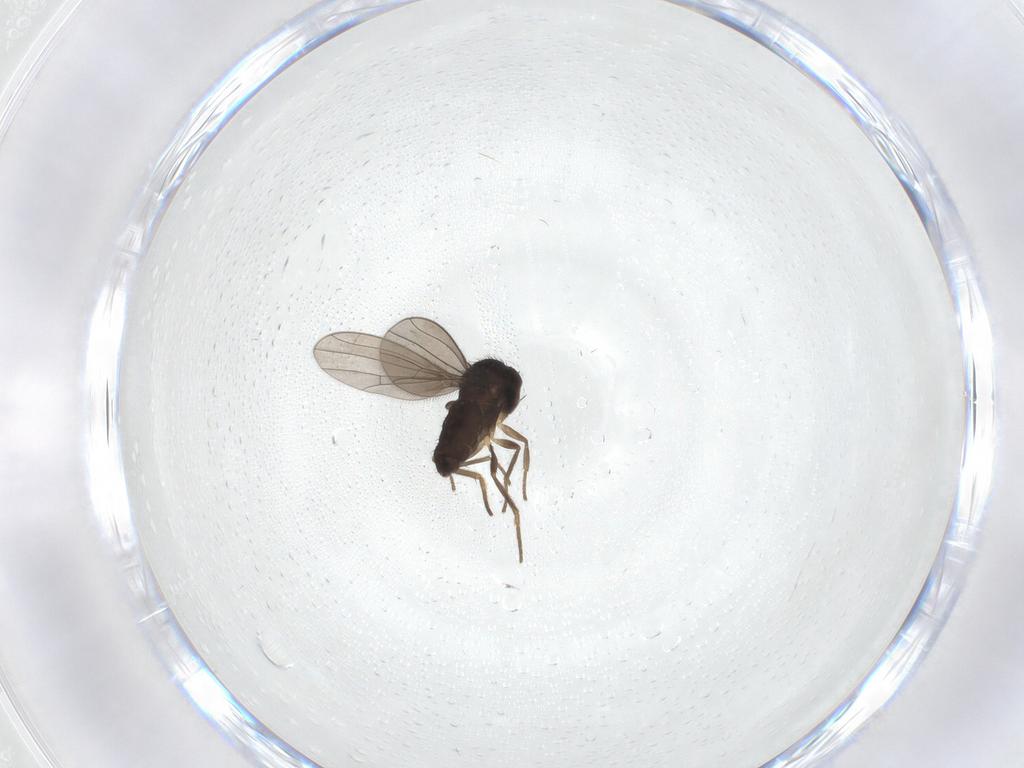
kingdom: Animalia
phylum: Arthropoda
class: Insecta
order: Diptera
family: Dolichopodidae
